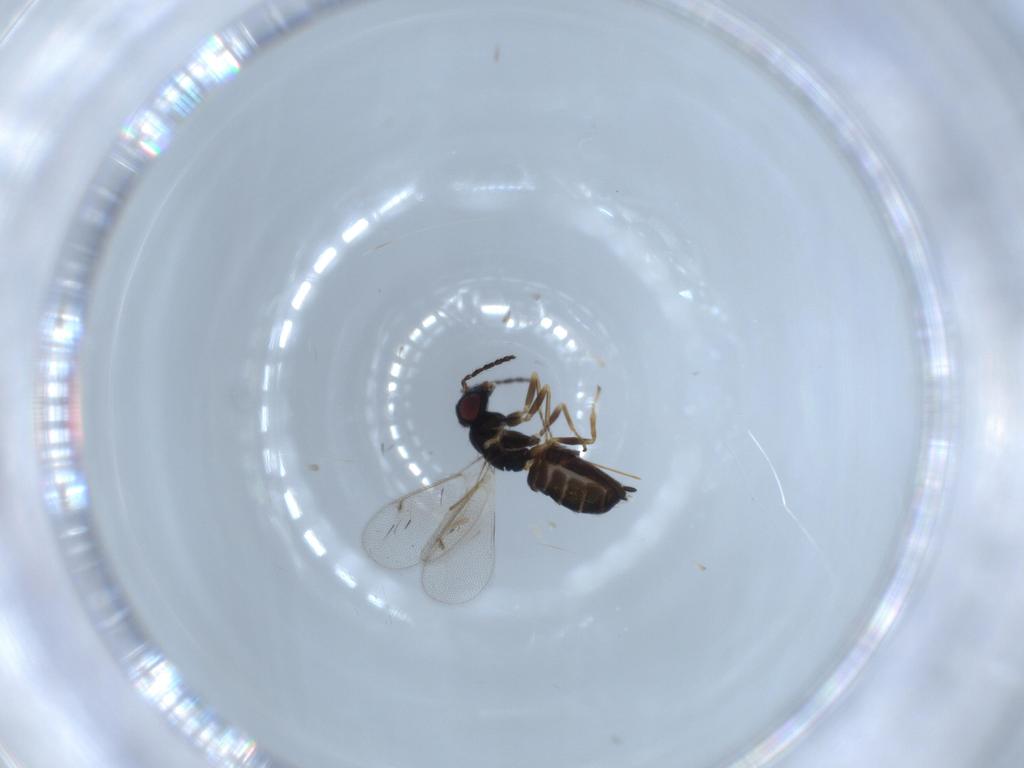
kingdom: Animalia
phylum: Arthropoda
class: Insecta
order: Hymenoptera
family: Eulophidae
